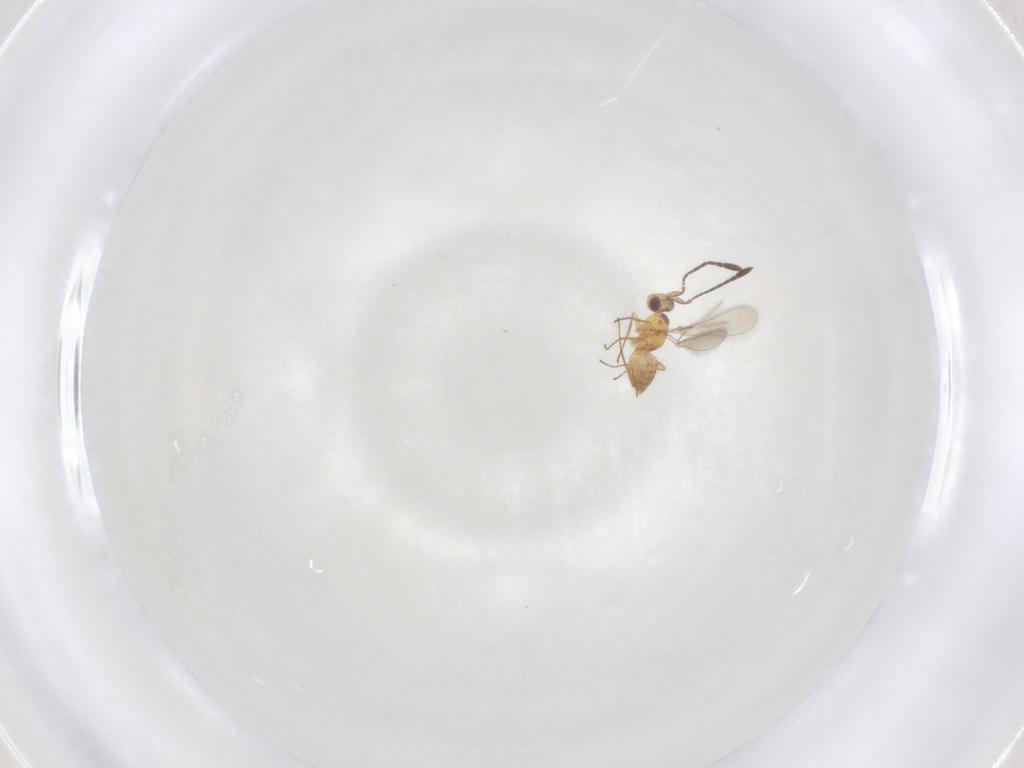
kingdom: Animalia
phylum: Arthropoda
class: Insecta
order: Hymenoptera
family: Mymaridae
